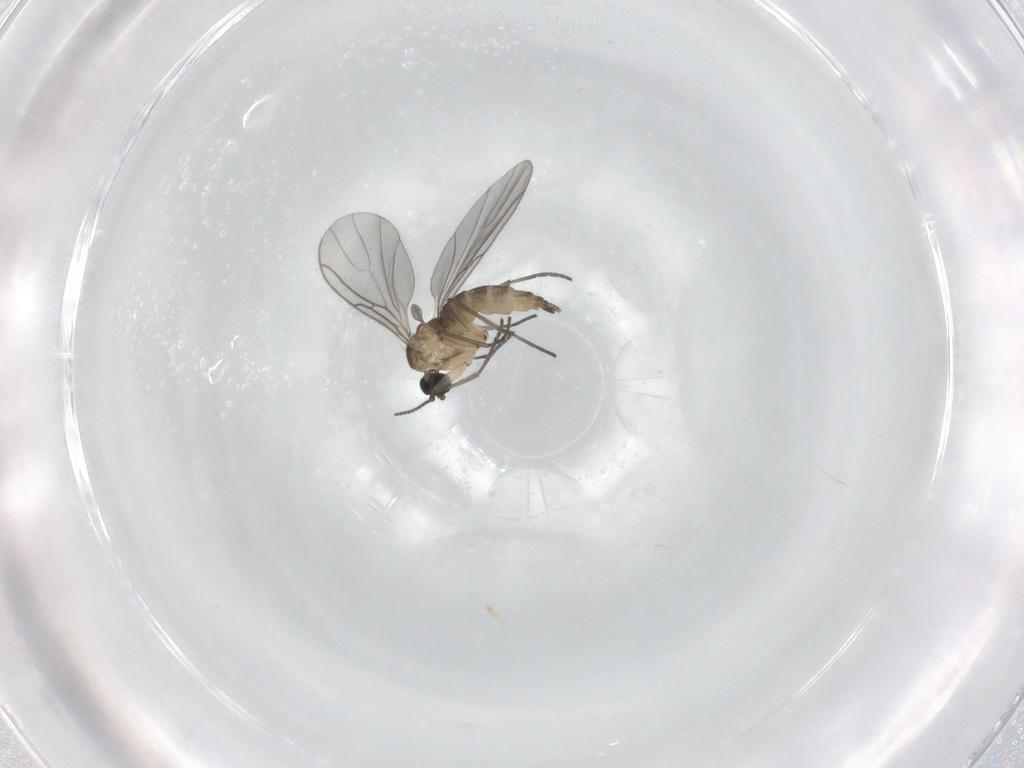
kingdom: Animalia
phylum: Arthropoda
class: Insecta
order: Diptera
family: Sciaridae
